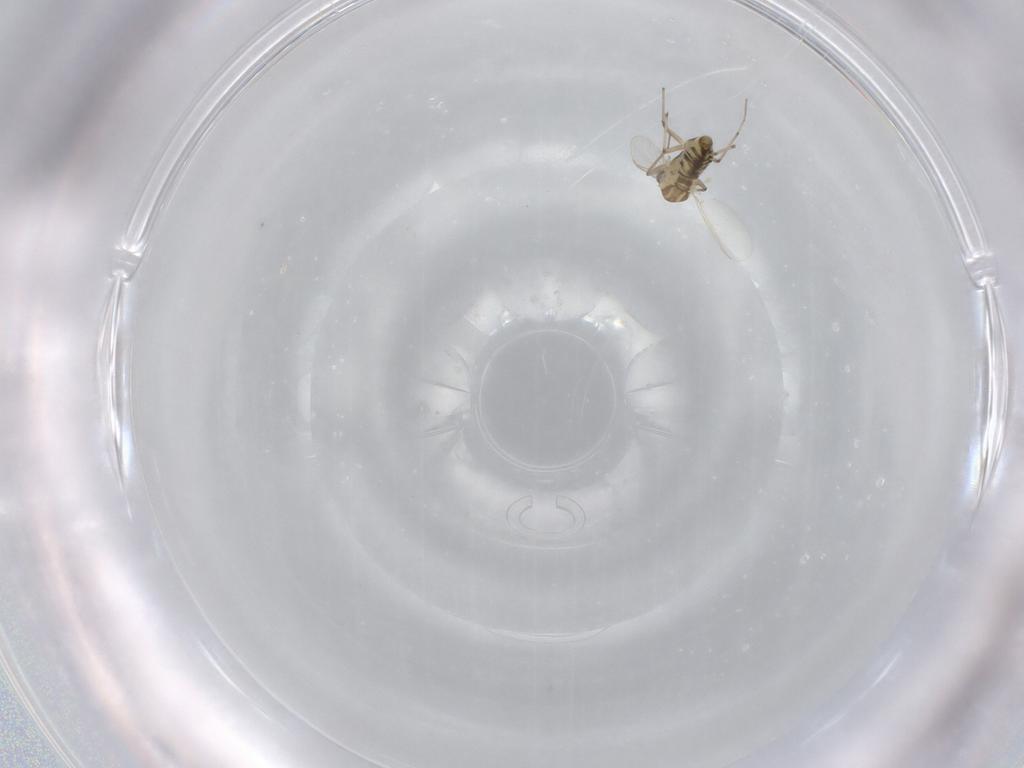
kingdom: Animalia
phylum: Arthropoda
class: Insecta
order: Diptera
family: Chironomidae
